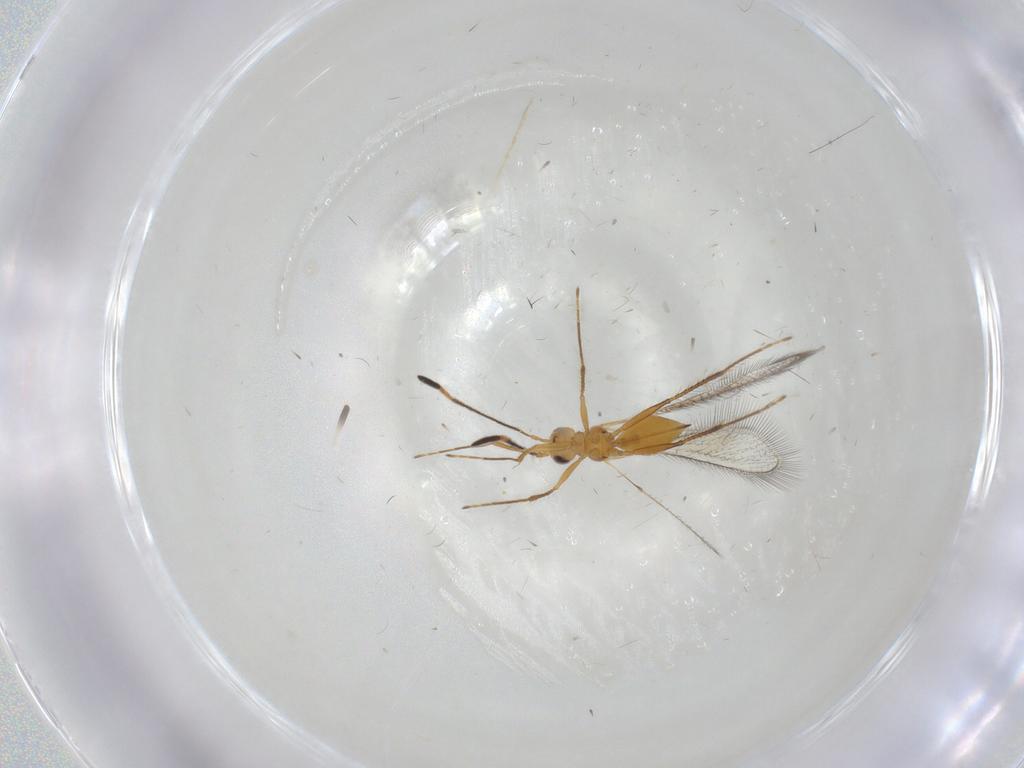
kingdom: Animalia
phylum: Arthropoda
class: Insecta
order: Hymenoptera
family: Mymaridae
